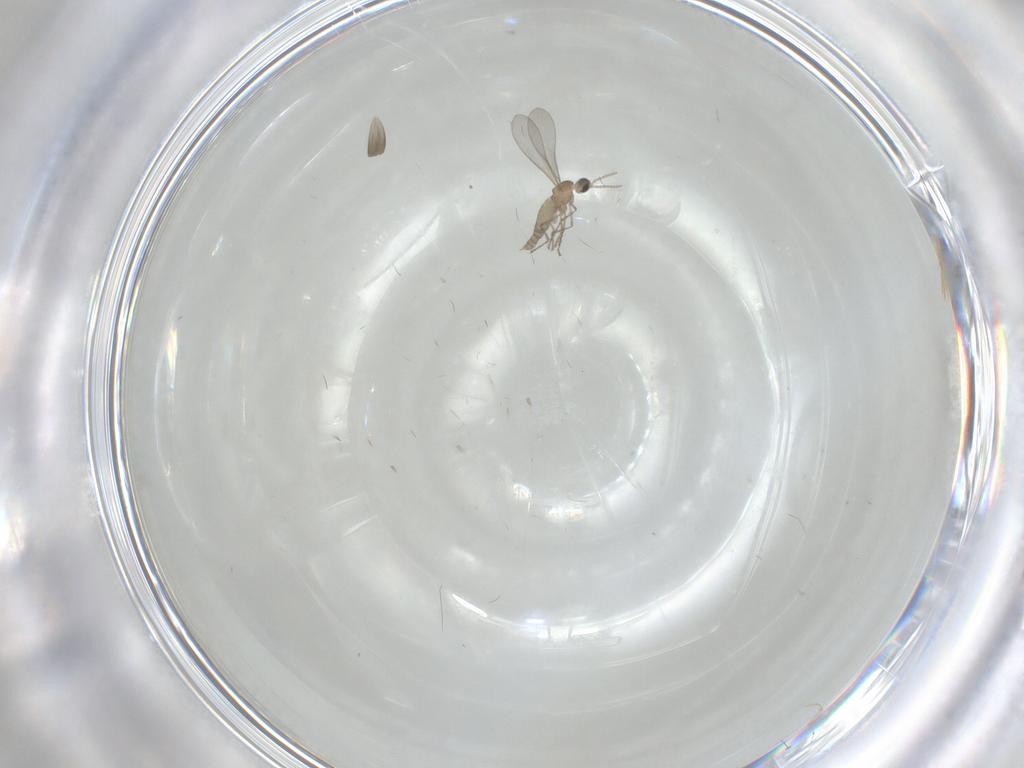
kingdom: Animalia
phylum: Arthropoda
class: Insecta
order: Diptera
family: Cecidomyiidae
